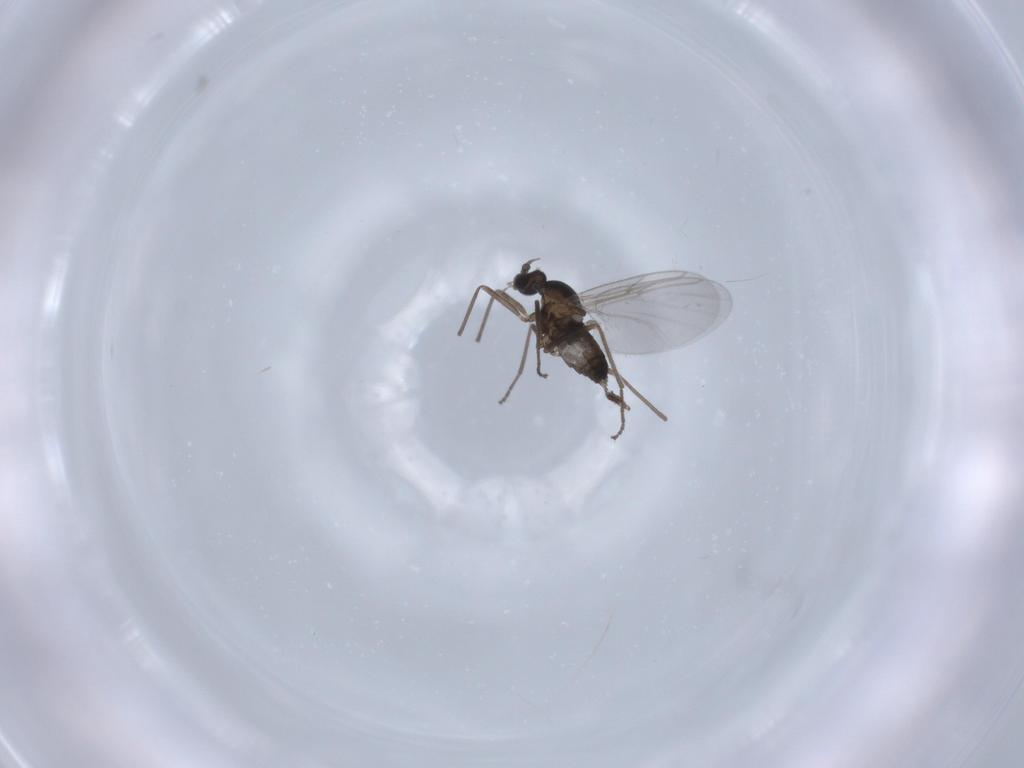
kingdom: Animalia
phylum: Arthropoda
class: Insecta
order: Diptera
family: Cecidomyiidae
